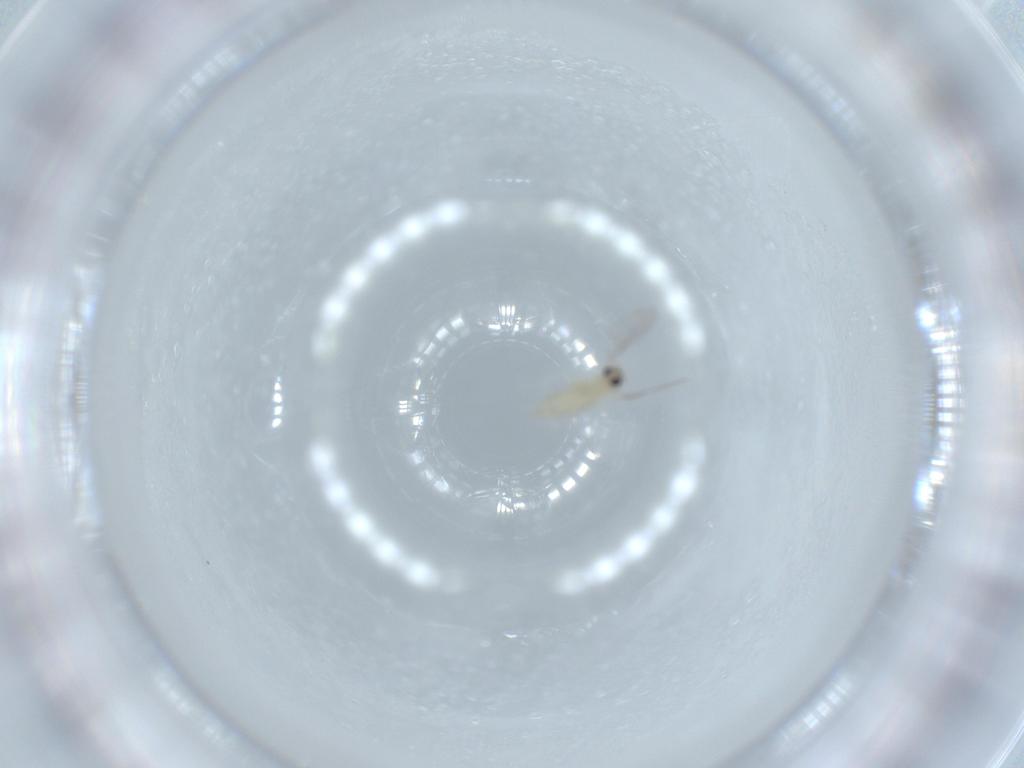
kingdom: Animalia
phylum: Arthropoda
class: Insecta
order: Diptera
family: Cecidomyiidae
